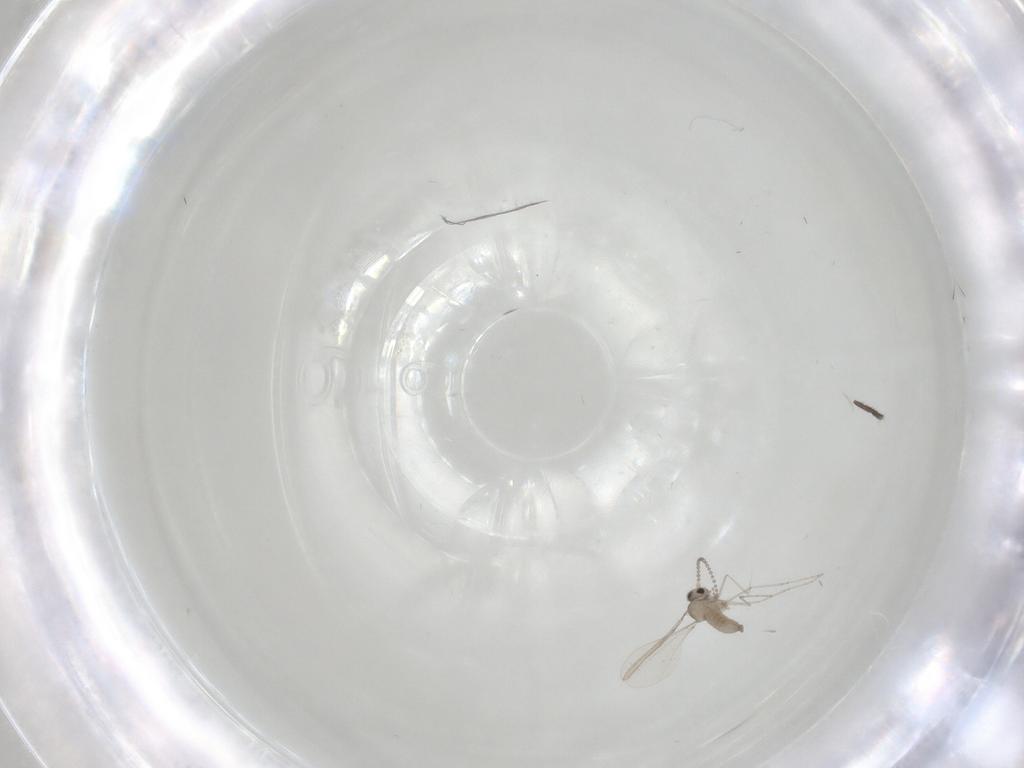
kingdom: Animalia
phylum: Arthropoda
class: Insecta
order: Diptera
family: Cecidomyiidae
